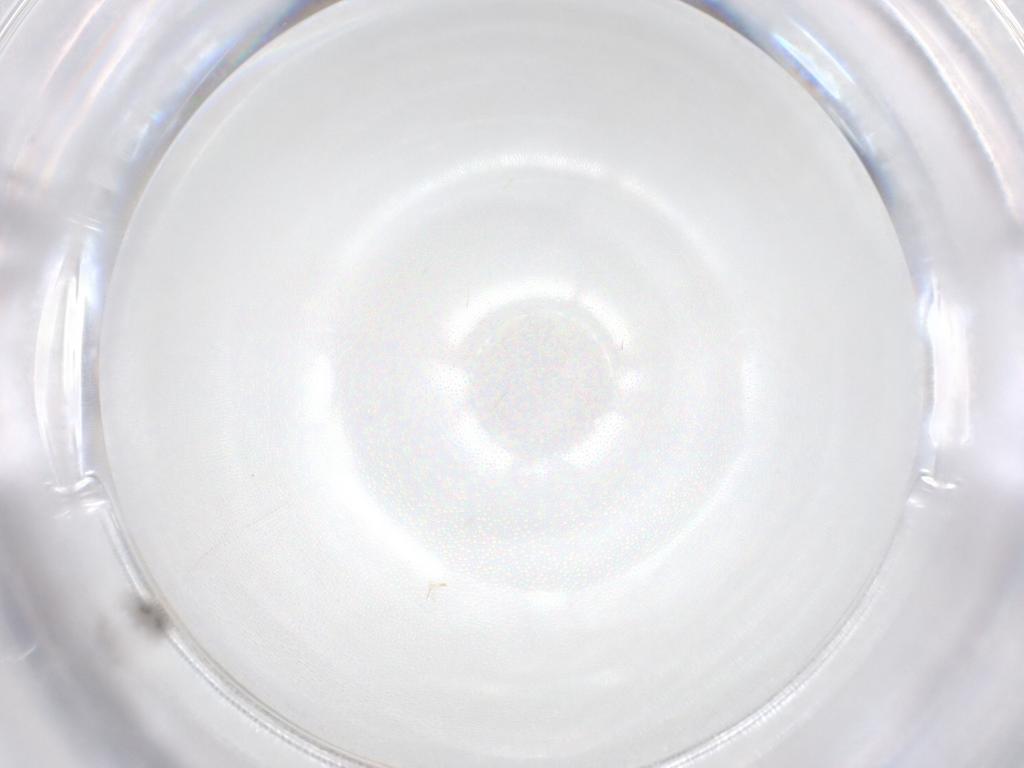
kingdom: Animalia
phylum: Arthropoda
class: Insecta
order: Hymenoptera
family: Trichogrammatidae
